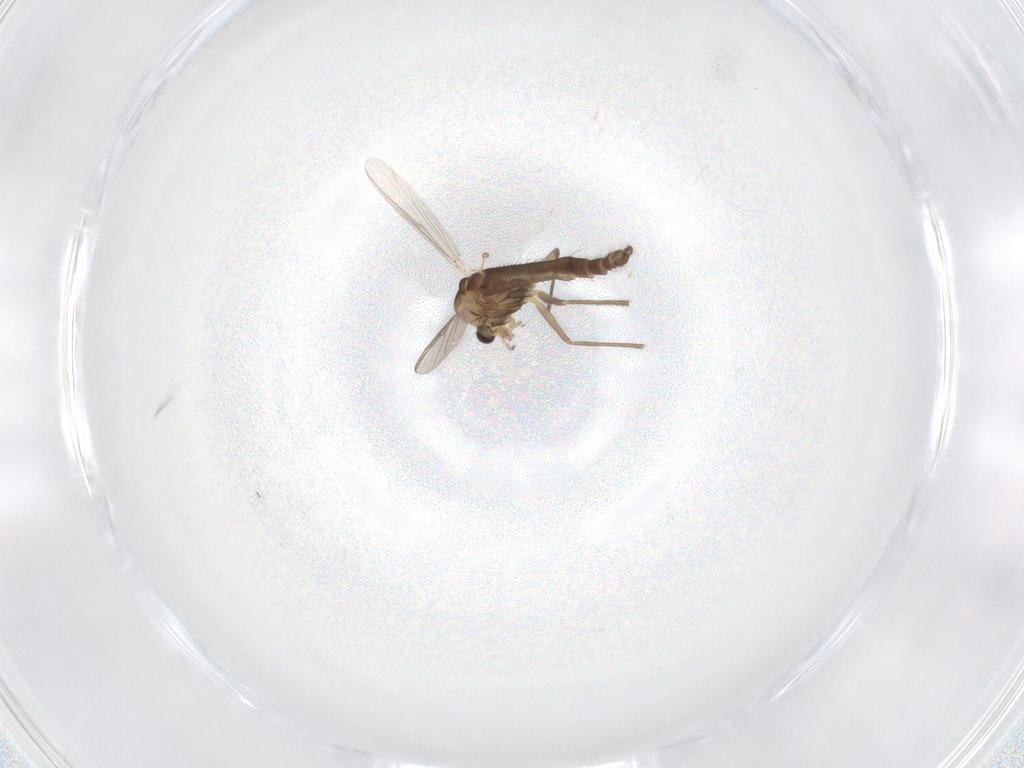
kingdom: Animalia
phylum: Arthropoda
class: Insecta
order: Diptera
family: Chironomidae
